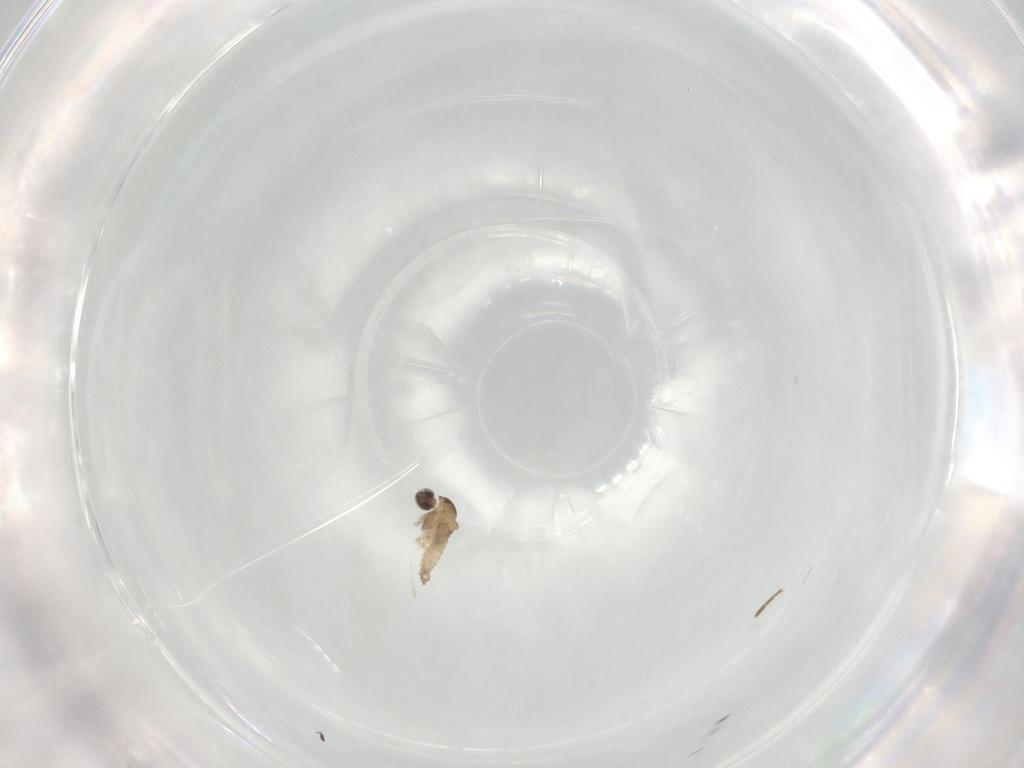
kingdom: Animalia
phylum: Arthropoda
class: Insecta
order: Diptera
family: Cecidomyiidae
